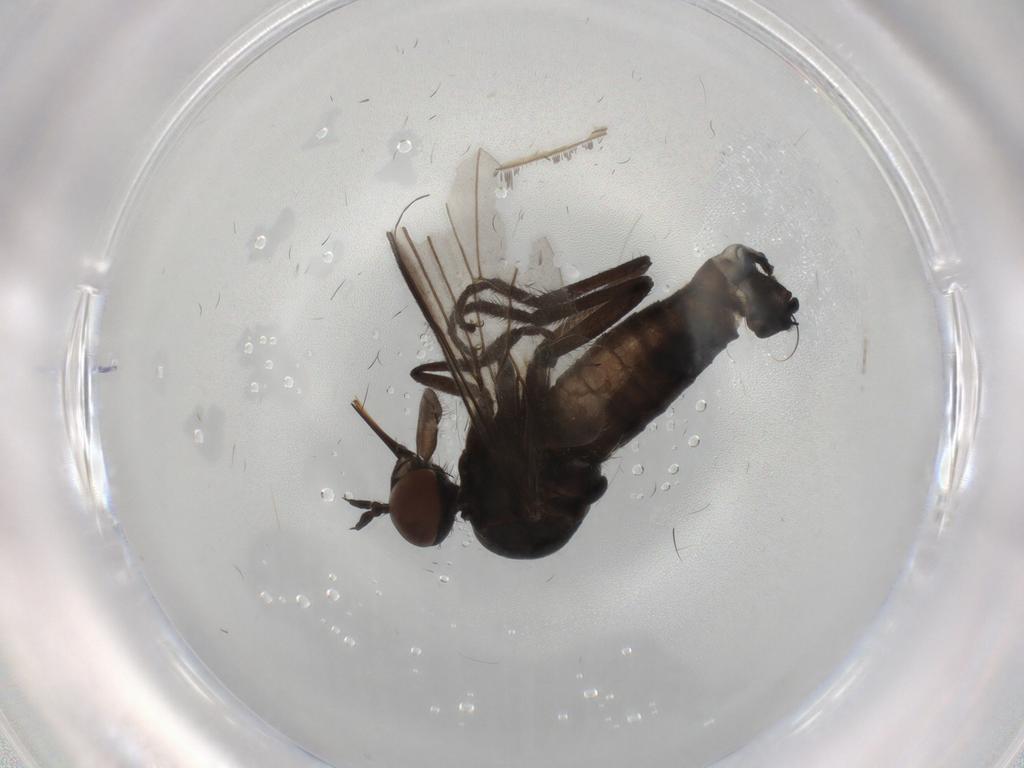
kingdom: Animalia
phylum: Arthropoda
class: Insecta
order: Diptera
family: Empididae
